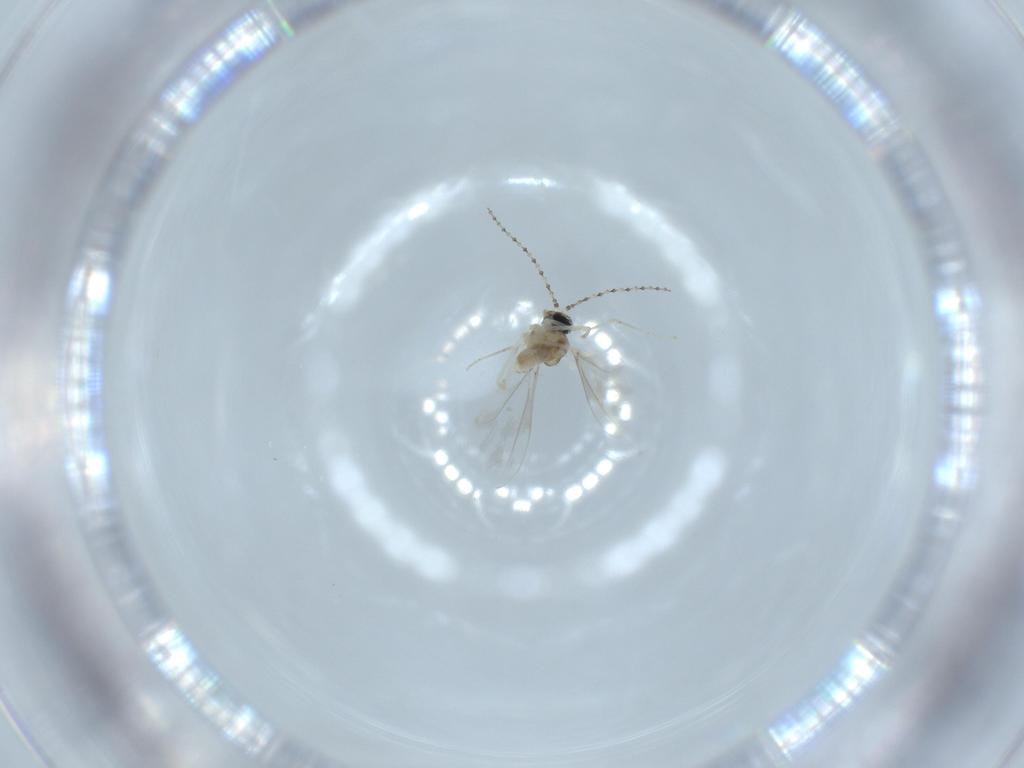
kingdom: Animalia
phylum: Arthropoda
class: Insecta
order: Diptera
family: Cecidomyiidae
